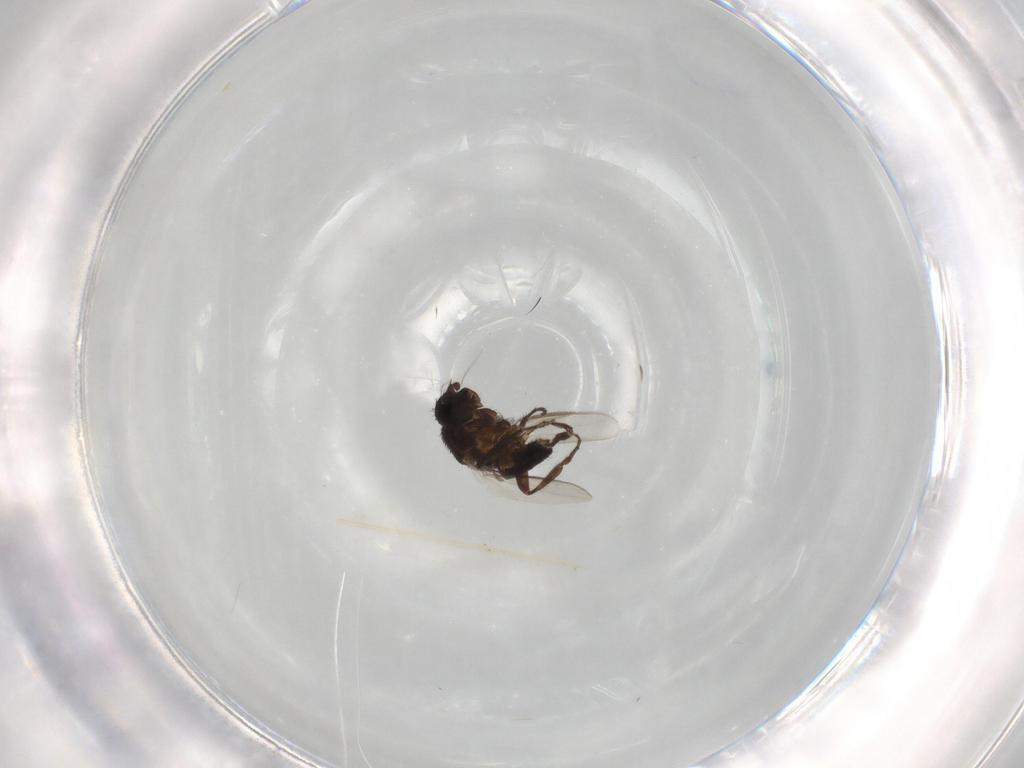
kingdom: Animalia
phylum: Arthropoda
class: Insecta
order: Diptera
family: Sphaeroceridae
